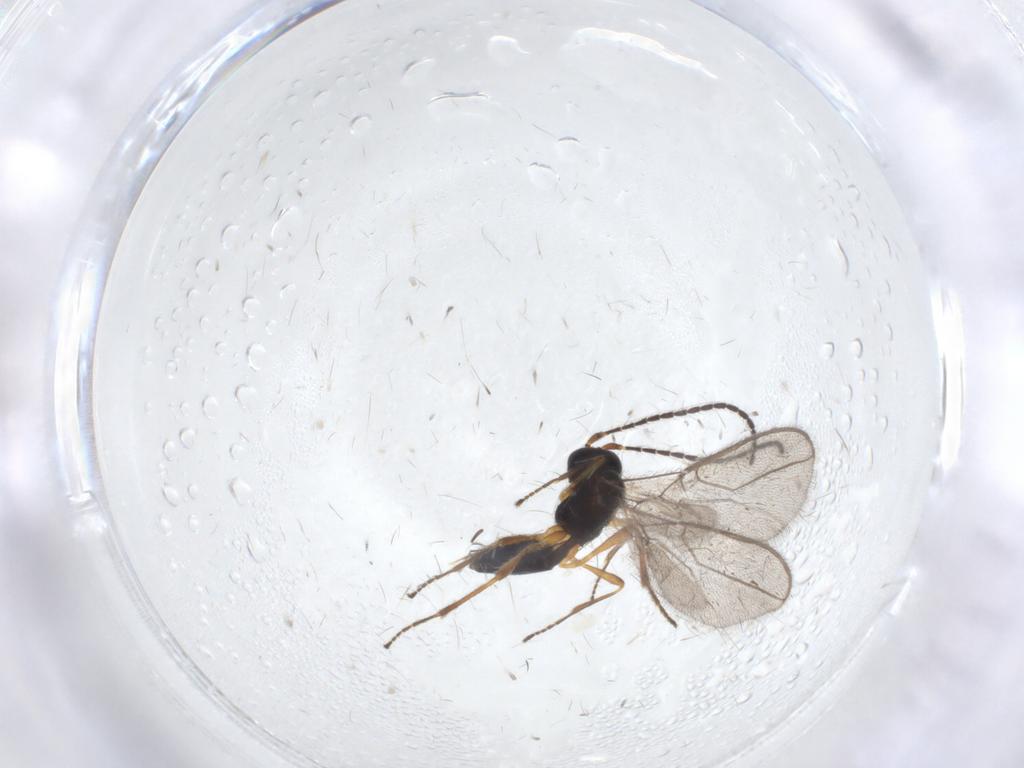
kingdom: Animalia
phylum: Arthropoda
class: Insecta
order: Hymenoptera
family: Braconidae
